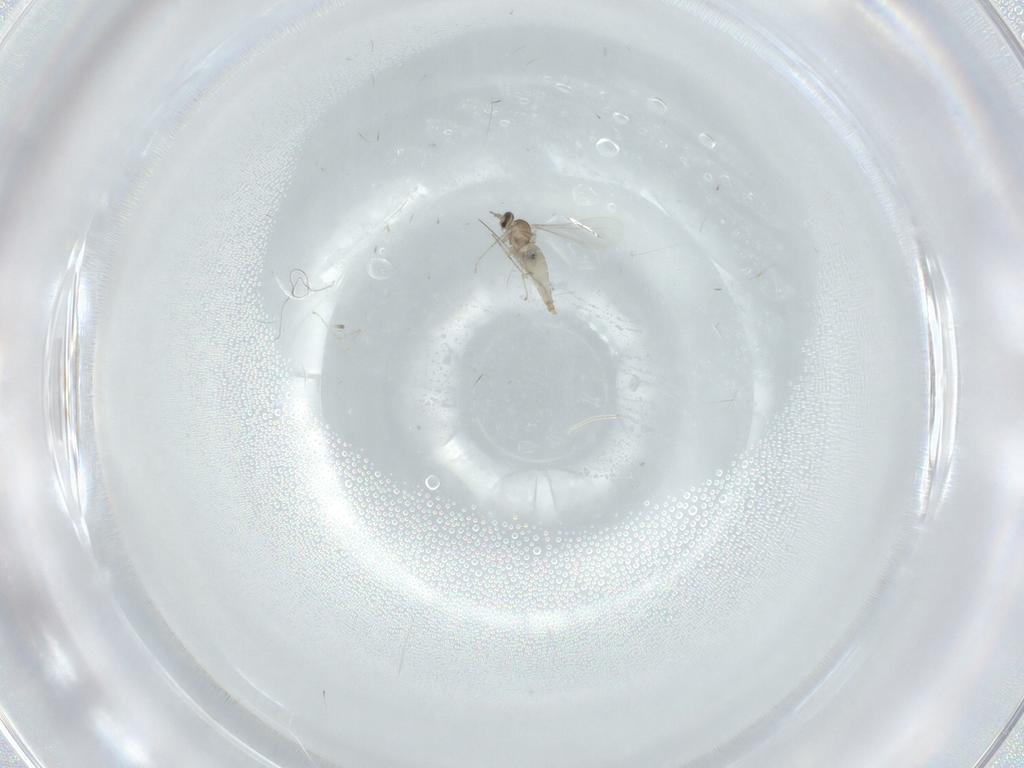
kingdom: Animalia
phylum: Arthropoda
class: Insecta
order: Diptera
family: Cecidomyiidae
